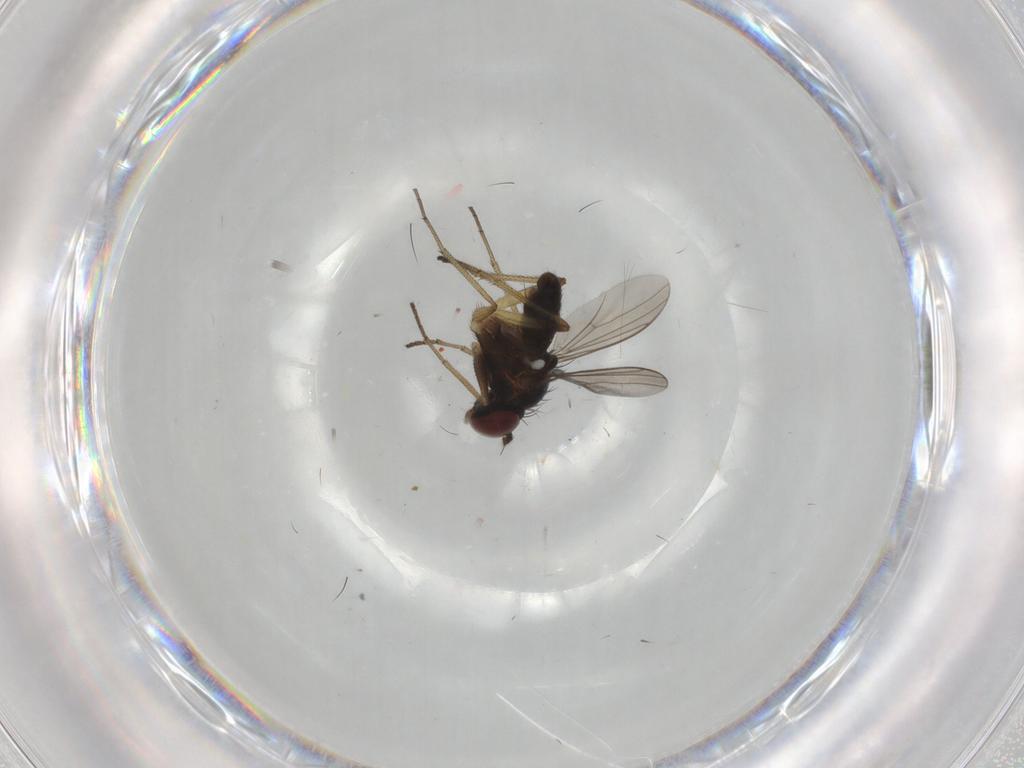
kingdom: Animalia
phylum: Arthropoda
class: Insecta
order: Diptera
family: Dolichopodidae
